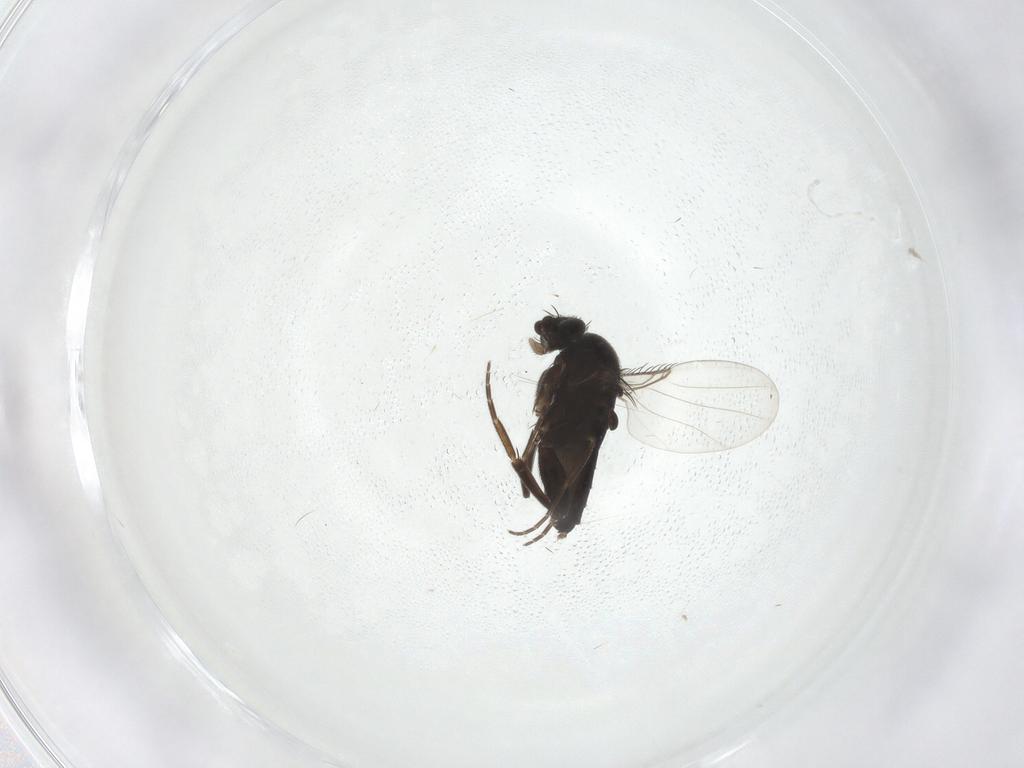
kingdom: Animalia
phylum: Arthropoda
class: Insecta
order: Diptera
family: Phoridae
